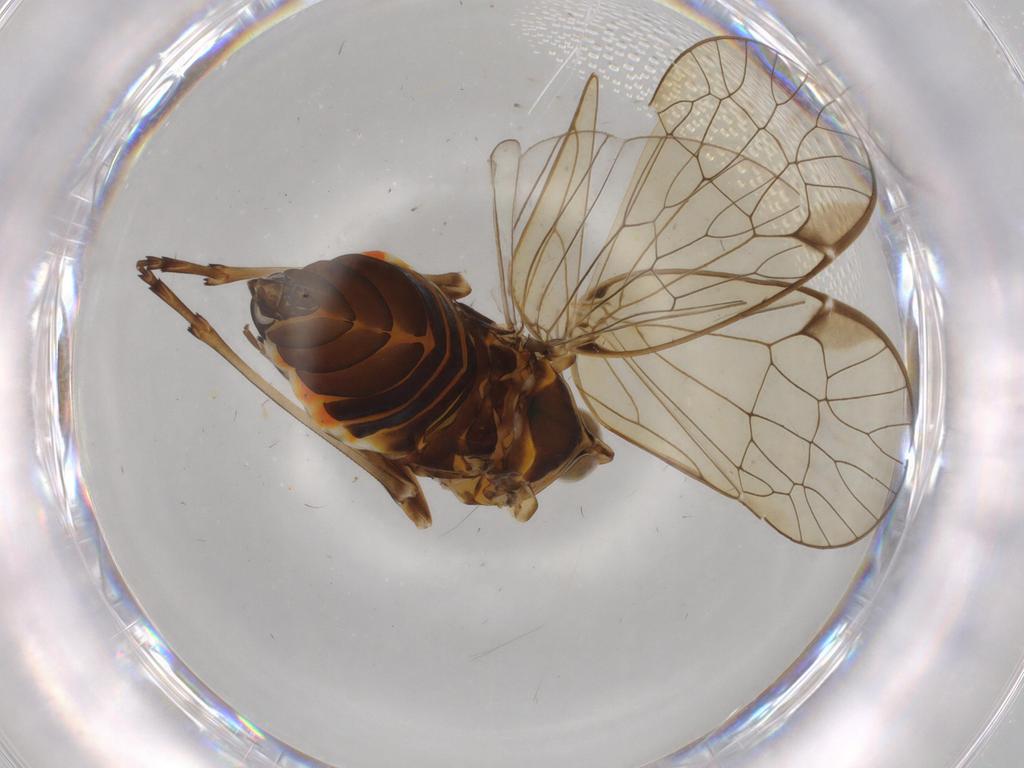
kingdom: Animalia
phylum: Arthropoda
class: Insecta
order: Hemiptera
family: Kinnaridae
